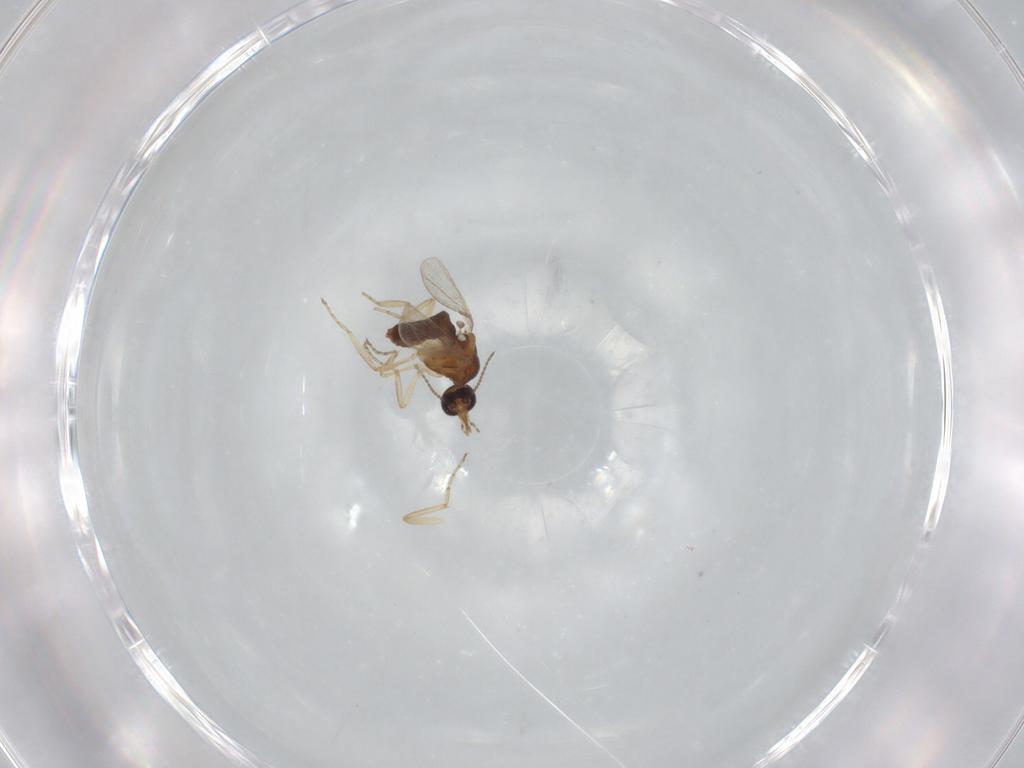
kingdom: Animalia
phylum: Arthropoda
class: Insecta
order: Diptera
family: Ceratopogonidae
